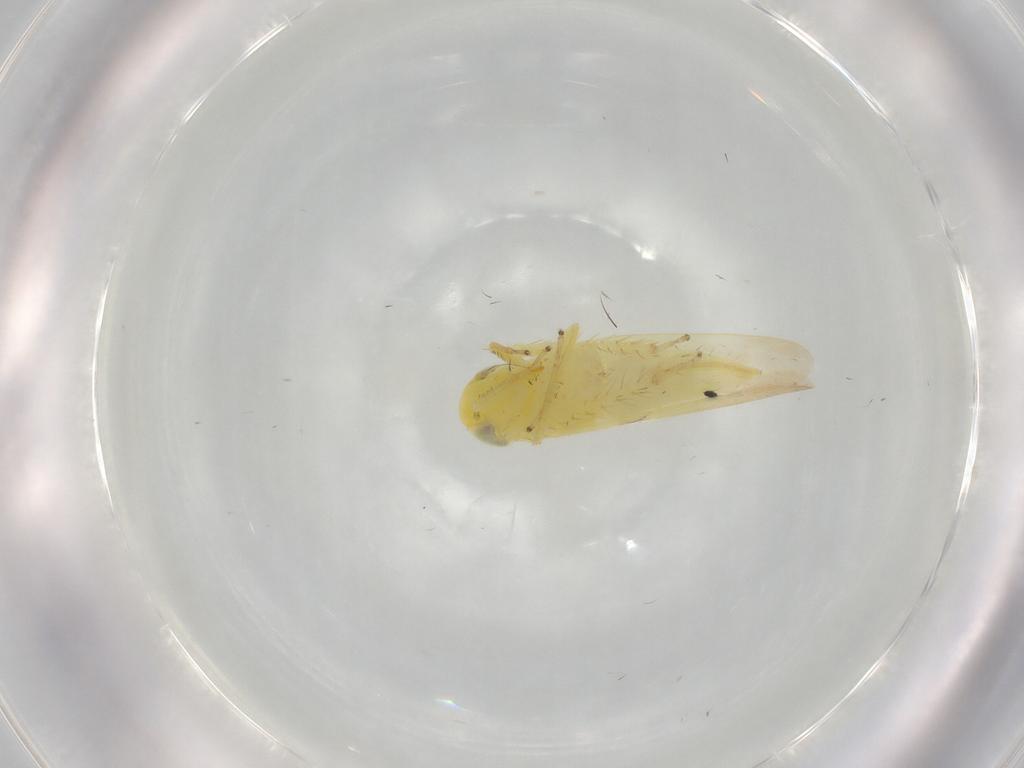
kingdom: Animalia
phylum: Arthropoda
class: Insecta
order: Hemiptera
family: Cicadellidae
